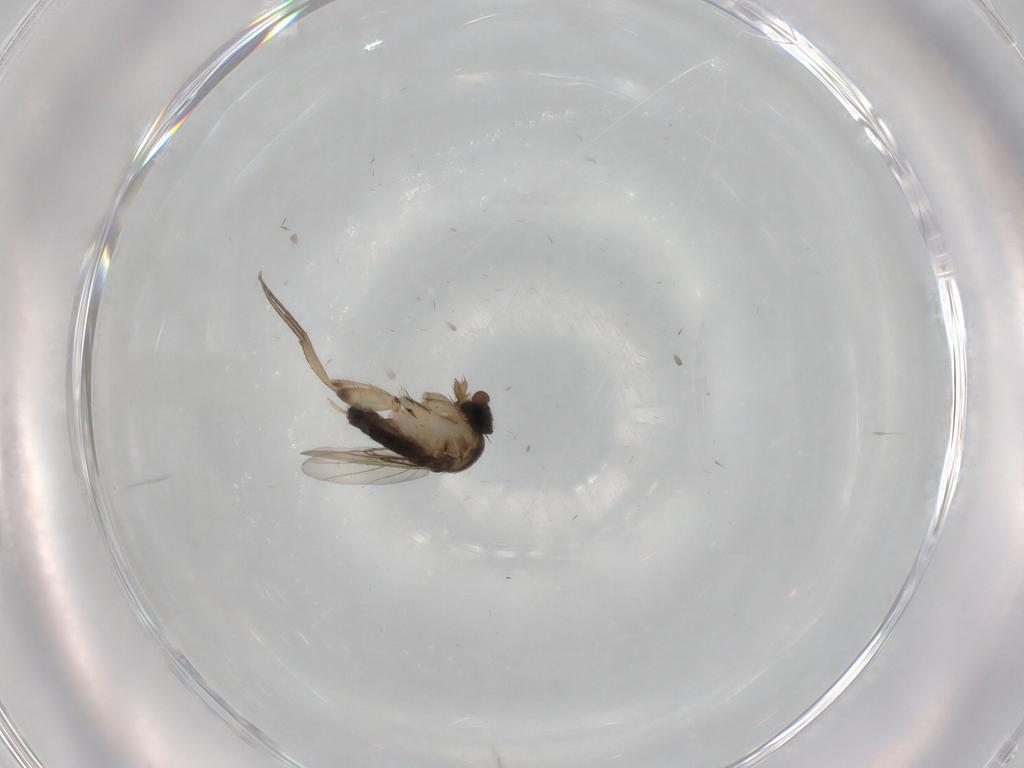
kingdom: Animalia
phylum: Arthropoda
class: Insecta
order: Diptera
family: Phoridae
